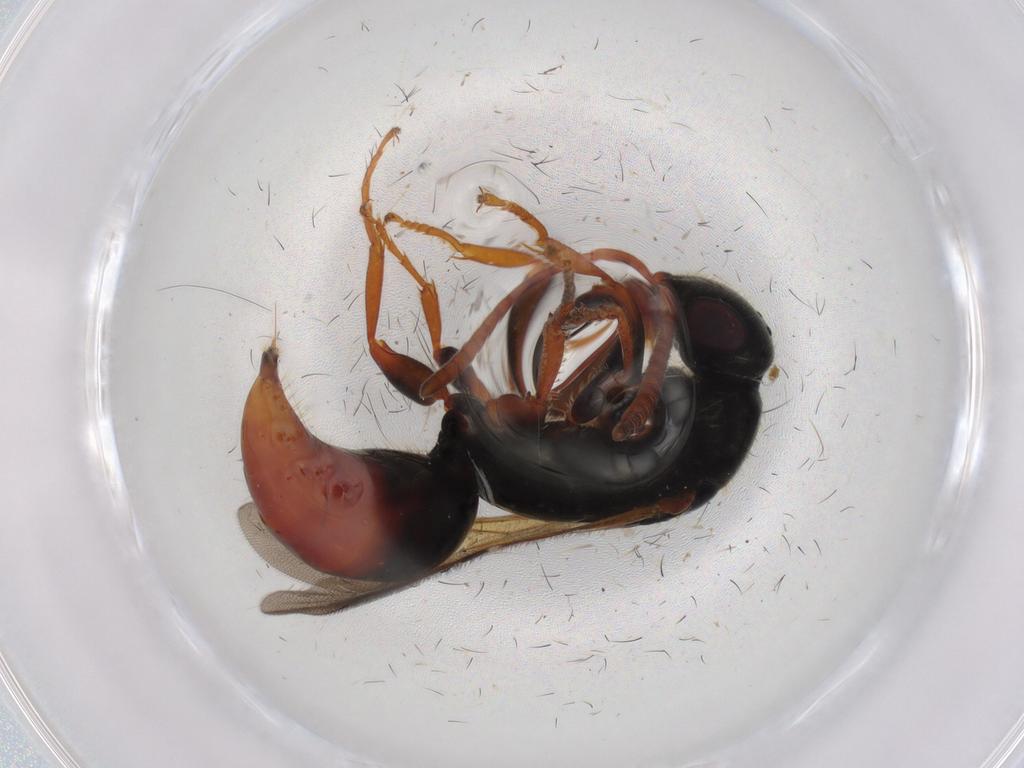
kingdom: Animalia
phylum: Arthropoda
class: Insecta
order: Hymenoptera
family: Bethylidae
